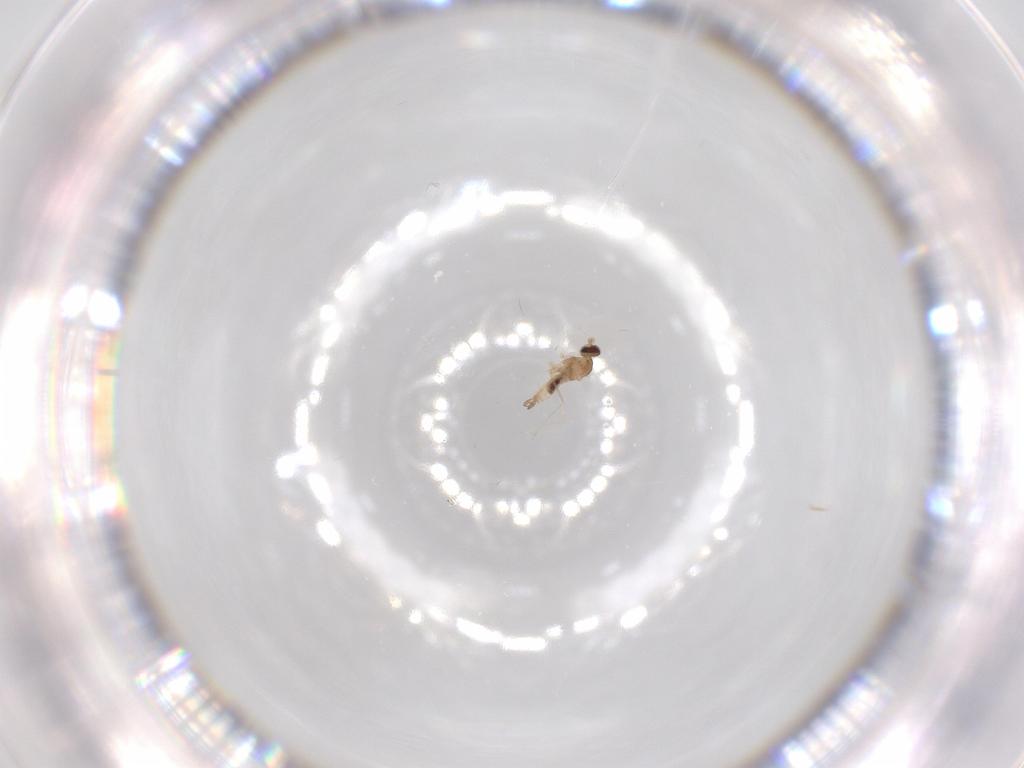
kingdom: Animalia
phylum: Arthropoda
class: Insecta
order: Diptera
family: Cecidomyiidae
